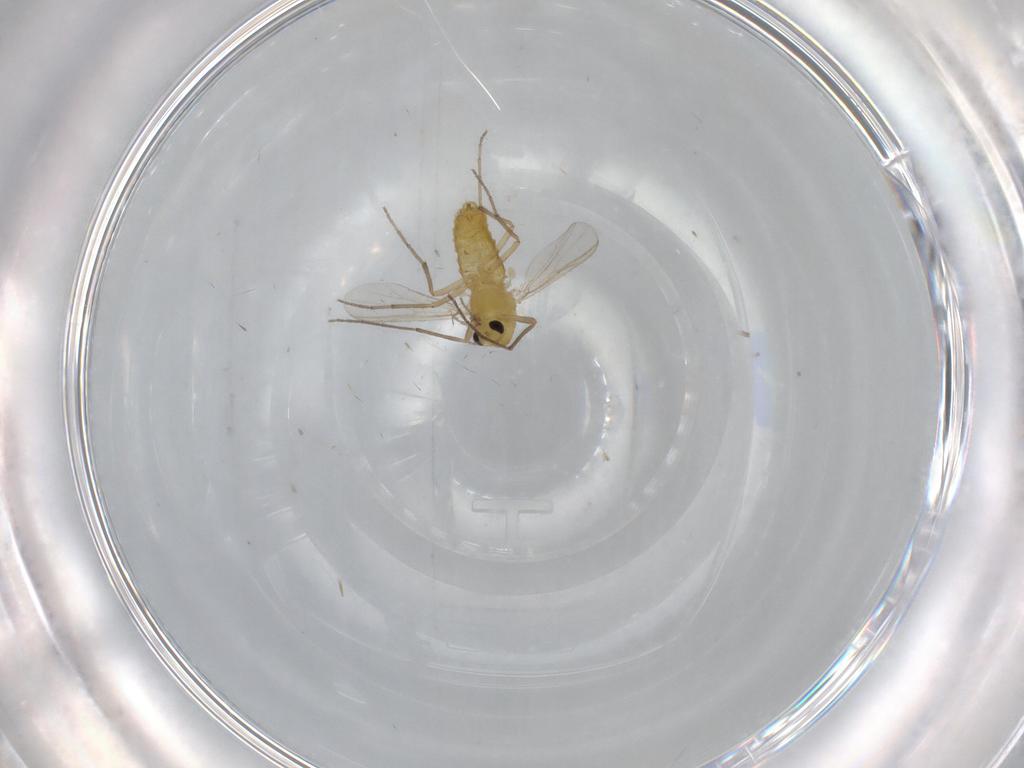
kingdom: Animalia
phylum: Arthropoda
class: Insecta
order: Diptera
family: Chironomidae
